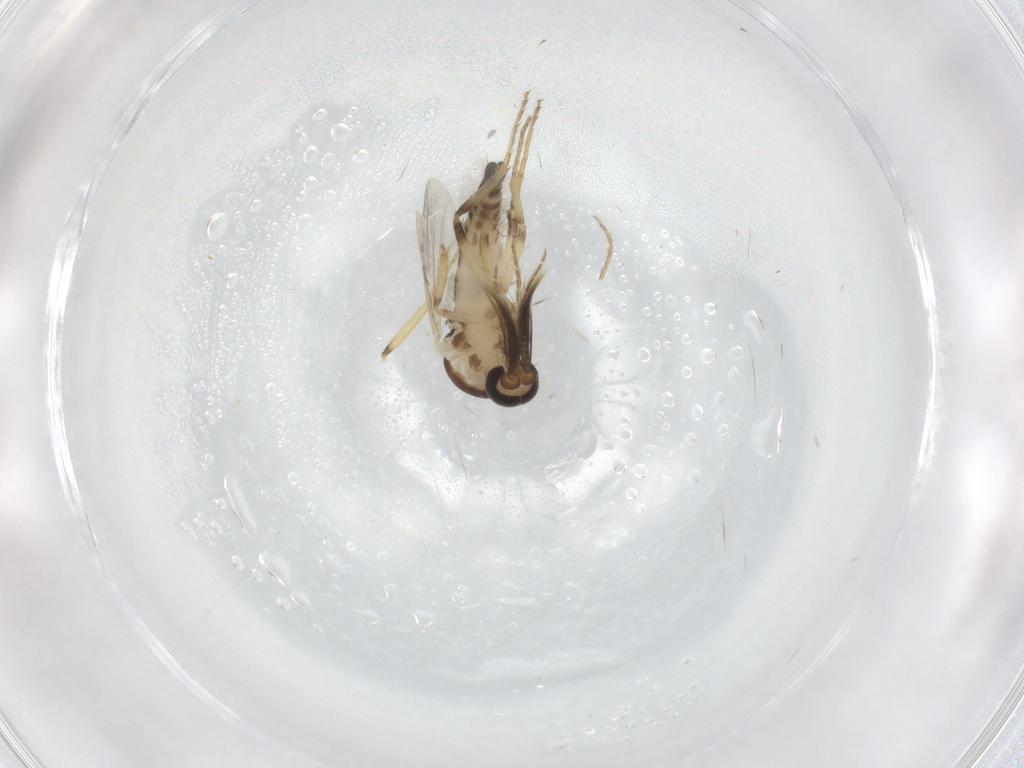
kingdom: Animalia
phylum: Arthropoda
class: Insecta
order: Diptera
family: Ceratopogonidae
